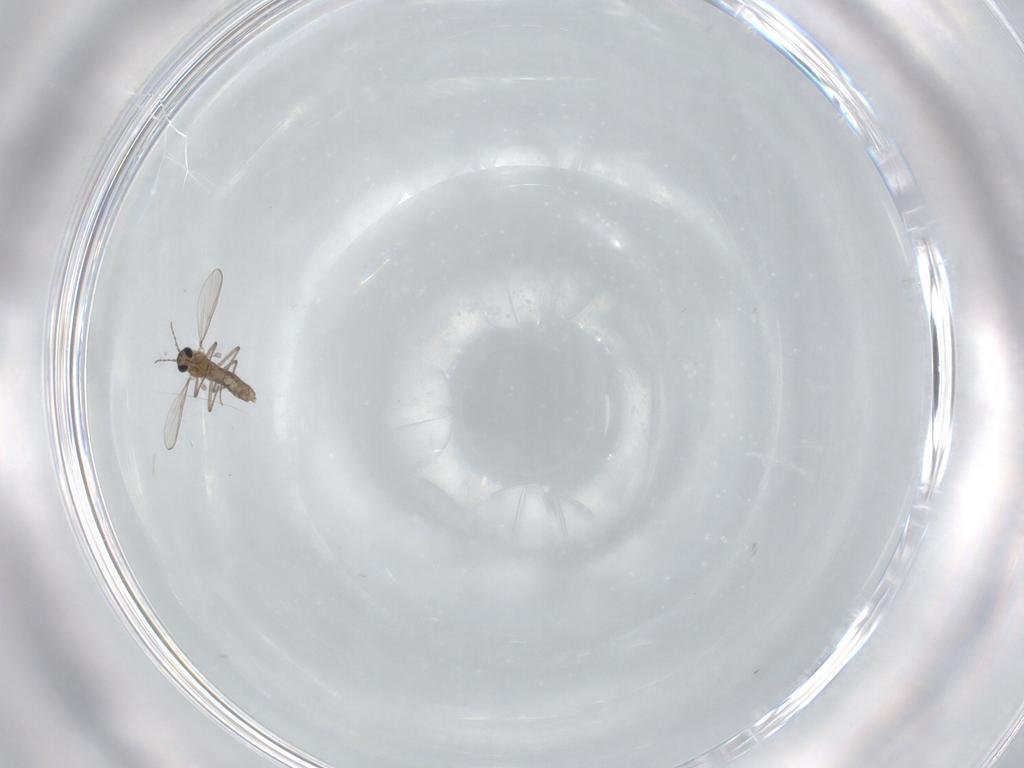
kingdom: Animalia
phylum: Arthropoda
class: Insecta
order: Diptera
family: Chironomidae
